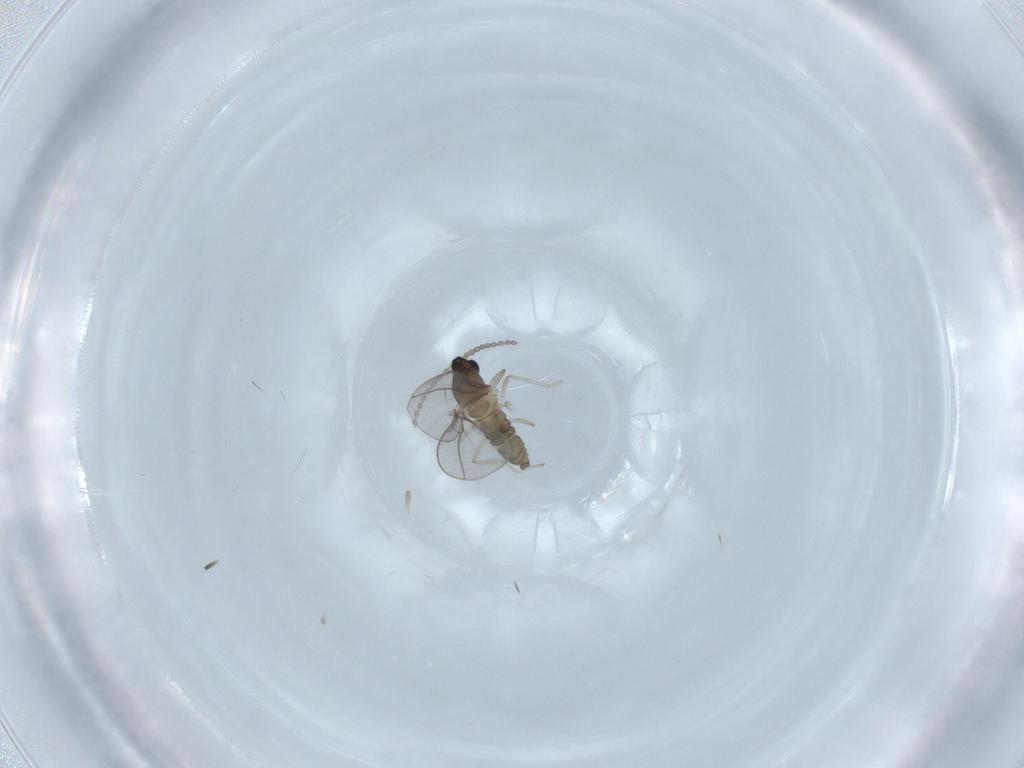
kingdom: Animalia
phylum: Arthropoda
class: Insecta
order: Diptera
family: Cecidomyiidae
